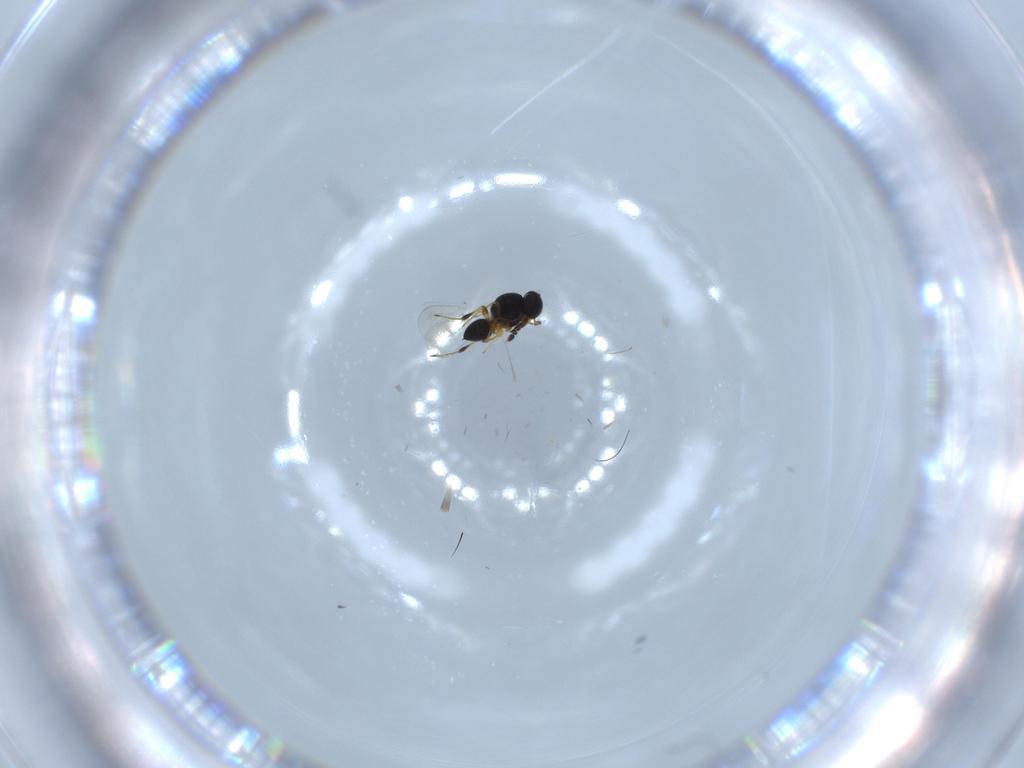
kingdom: Animalia
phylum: Arthropoda
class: Insecta
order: Hymenoptera
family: Platygastridae
